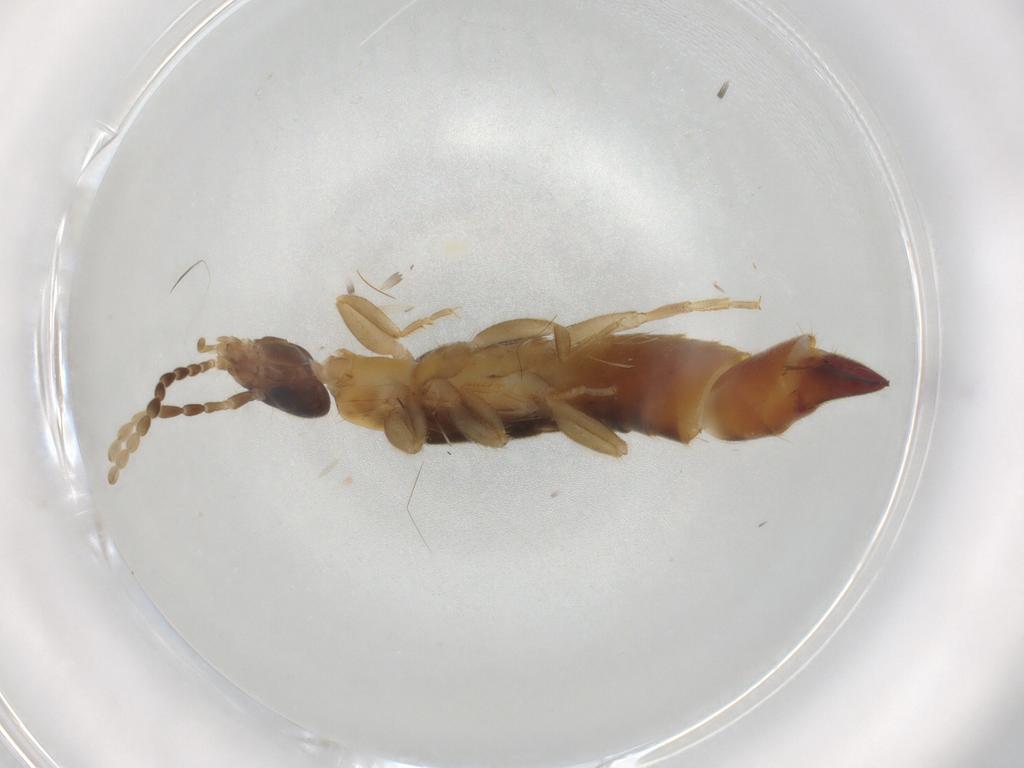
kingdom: Animalia
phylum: Arthropoda
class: Insecta
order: Dermaptera
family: Spongiphoridae
